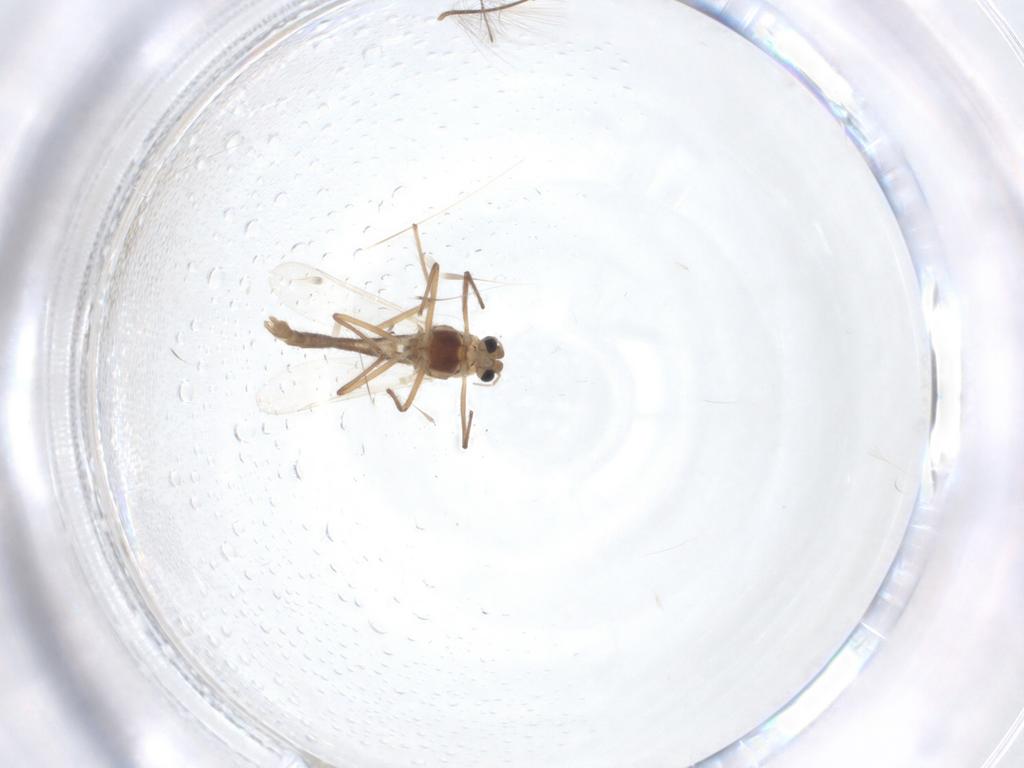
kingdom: Animalia
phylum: Arthropoda
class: Insecta
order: Diptera
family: Chironomidae
